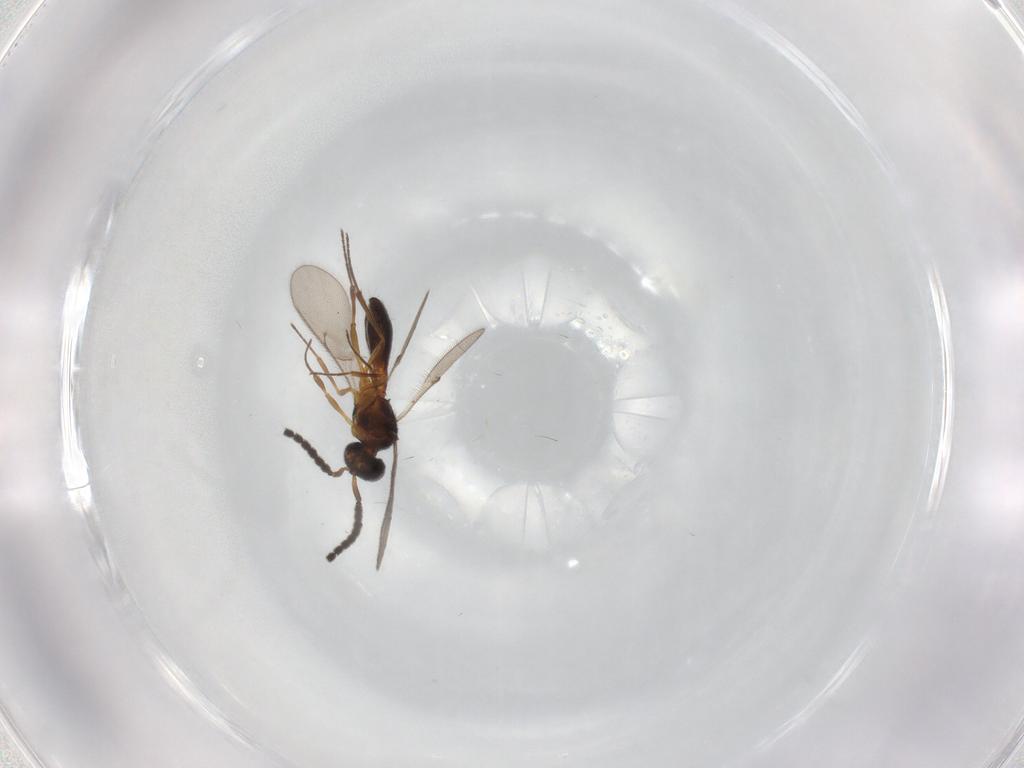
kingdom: Animalia
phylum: Arthropoda
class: Insecta
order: Hymenoptera
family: Scelionidae
